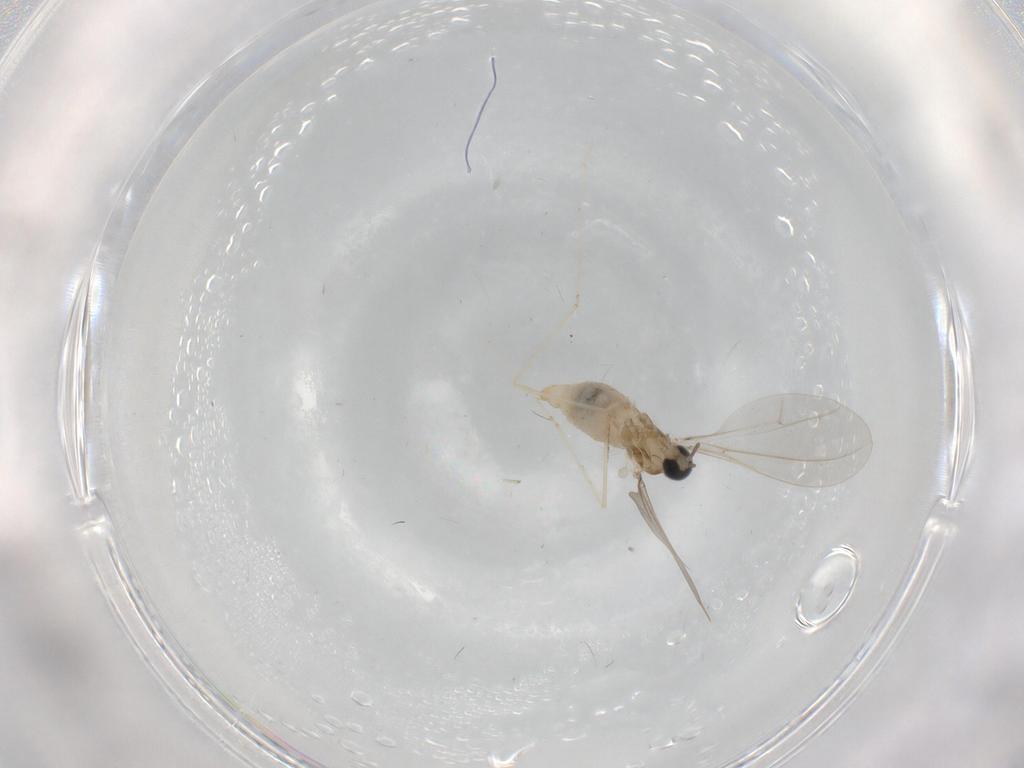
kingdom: Animalia
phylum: Arthropoda
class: Insecta
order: Diptera
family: Cecidomyiidae
